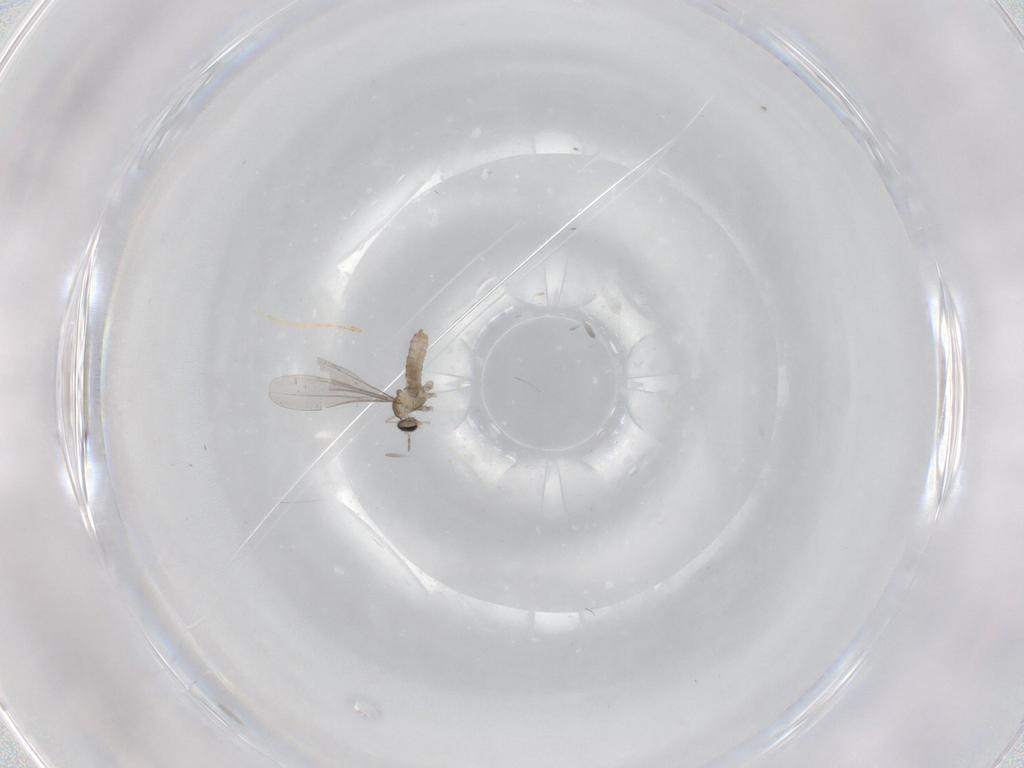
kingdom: Animalia
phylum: Arthropoda
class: Insecta
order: Diptera
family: Cecidomyiidae
